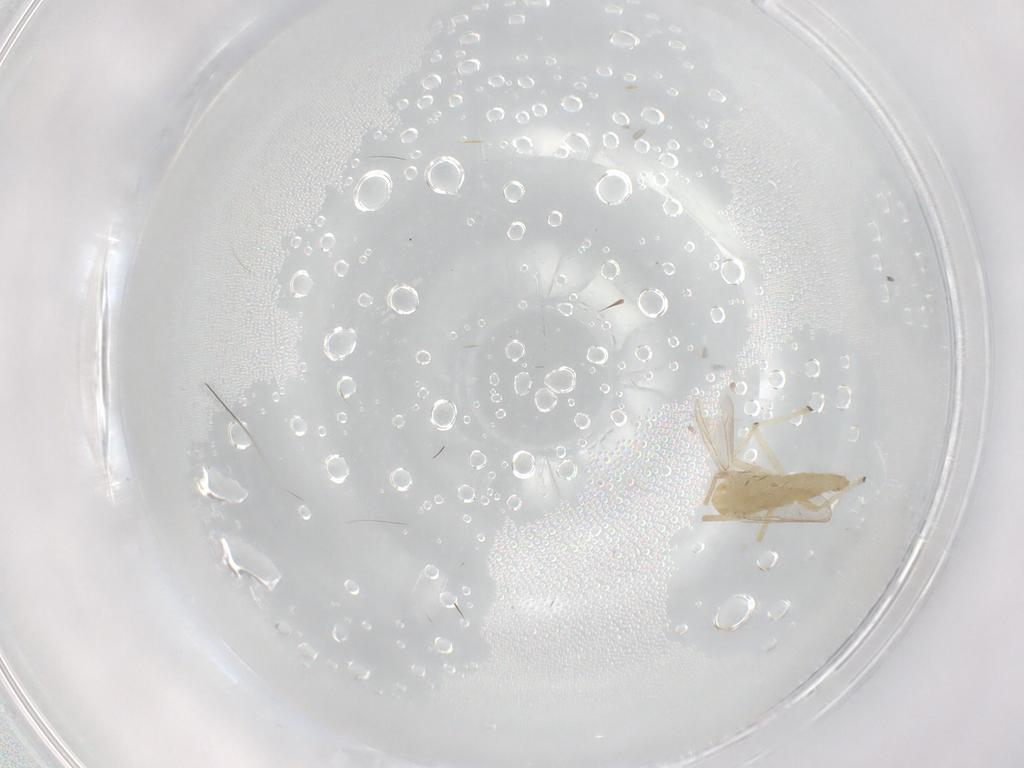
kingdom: Animalia
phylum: Arthropoda
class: Insecta
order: Diptera
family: Chironomidae
